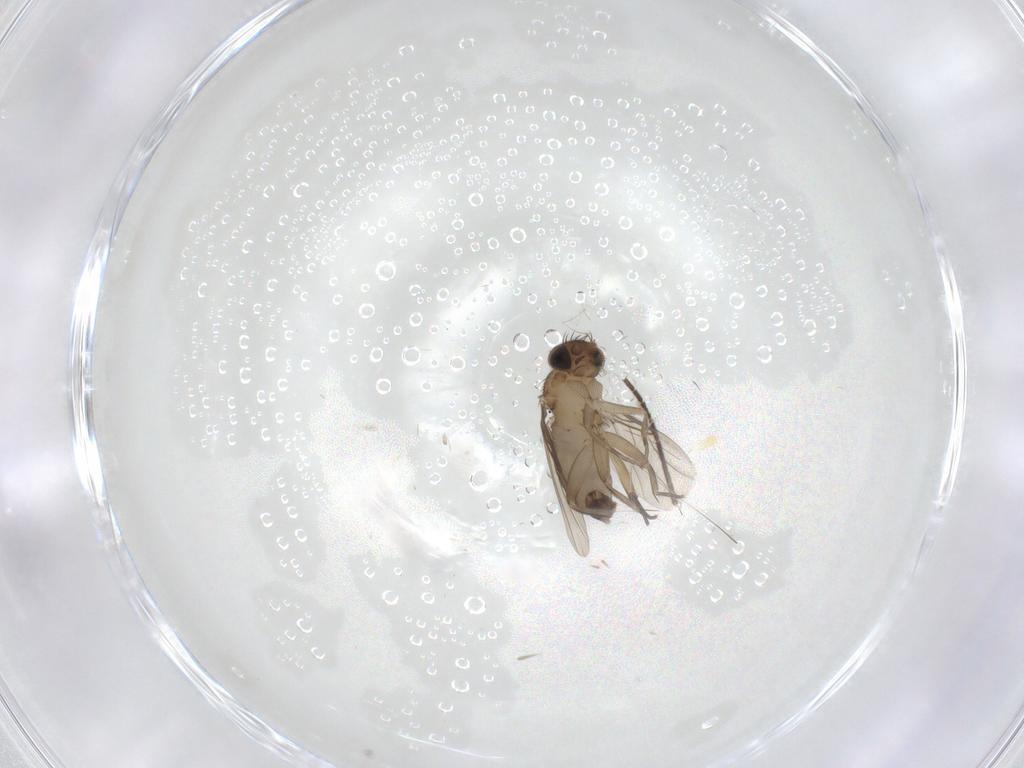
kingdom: Animalia
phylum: Arthropoda
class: Insecta
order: Diptera
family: Phoridae
